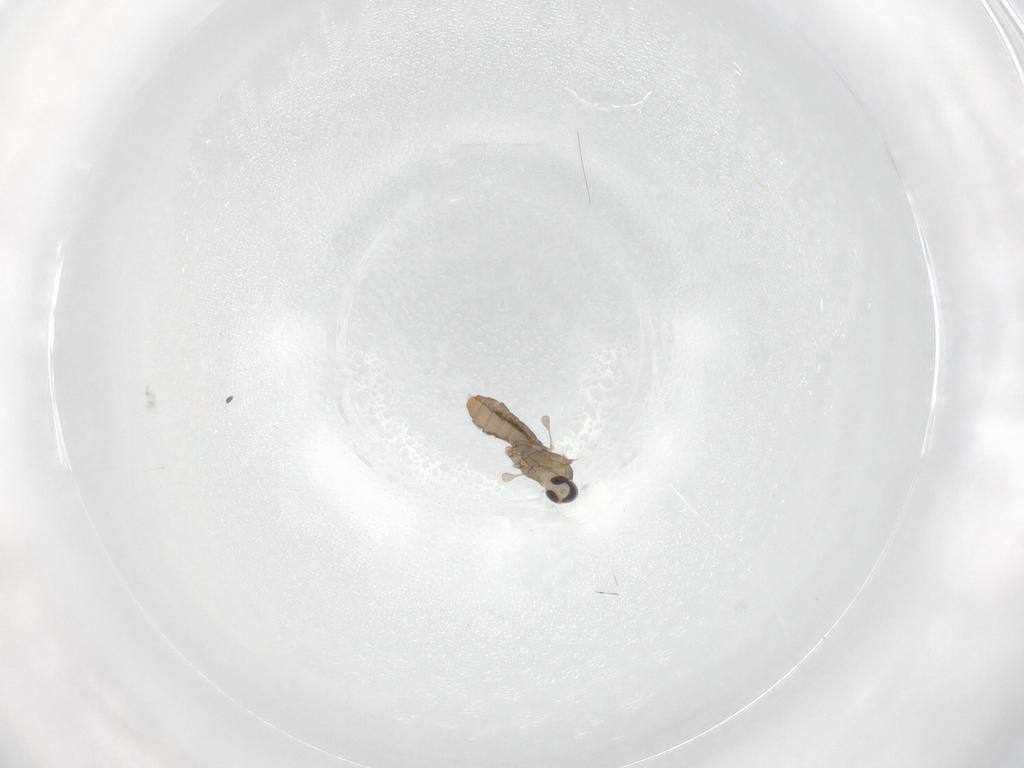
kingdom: Animalia
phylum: Arthropoda
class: Insecta
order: Diptera
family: Cecidomyiidae
